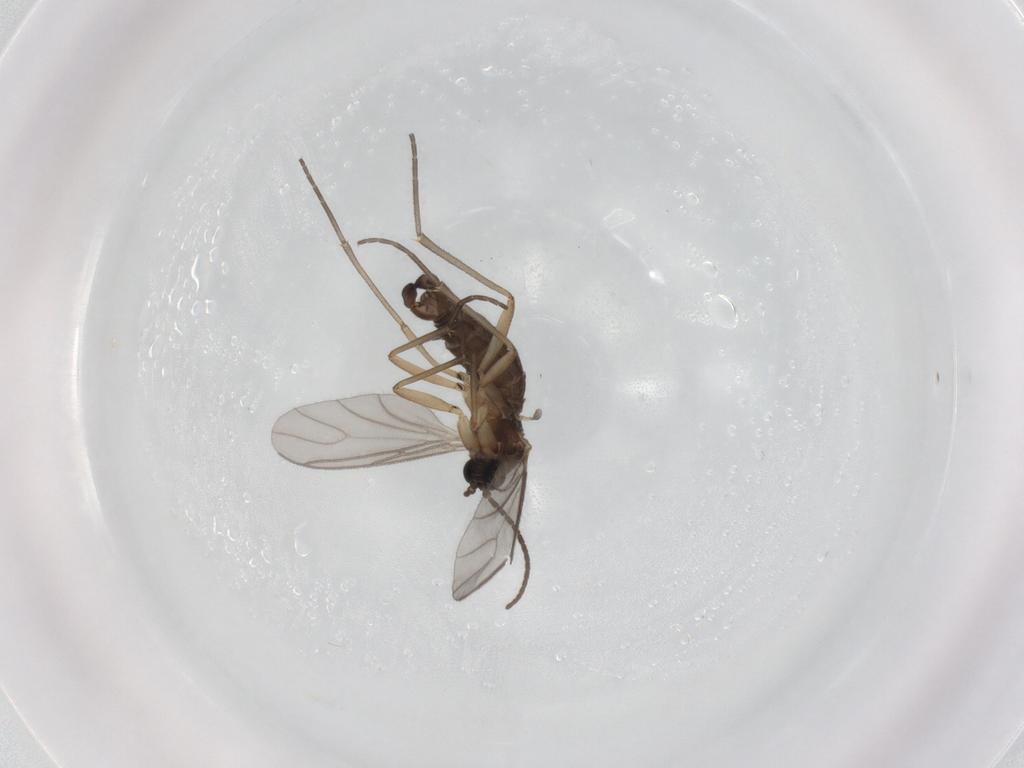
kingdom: Animalia
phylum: Arthropoda
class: Insecta
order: Diptera
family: Sciaridae
